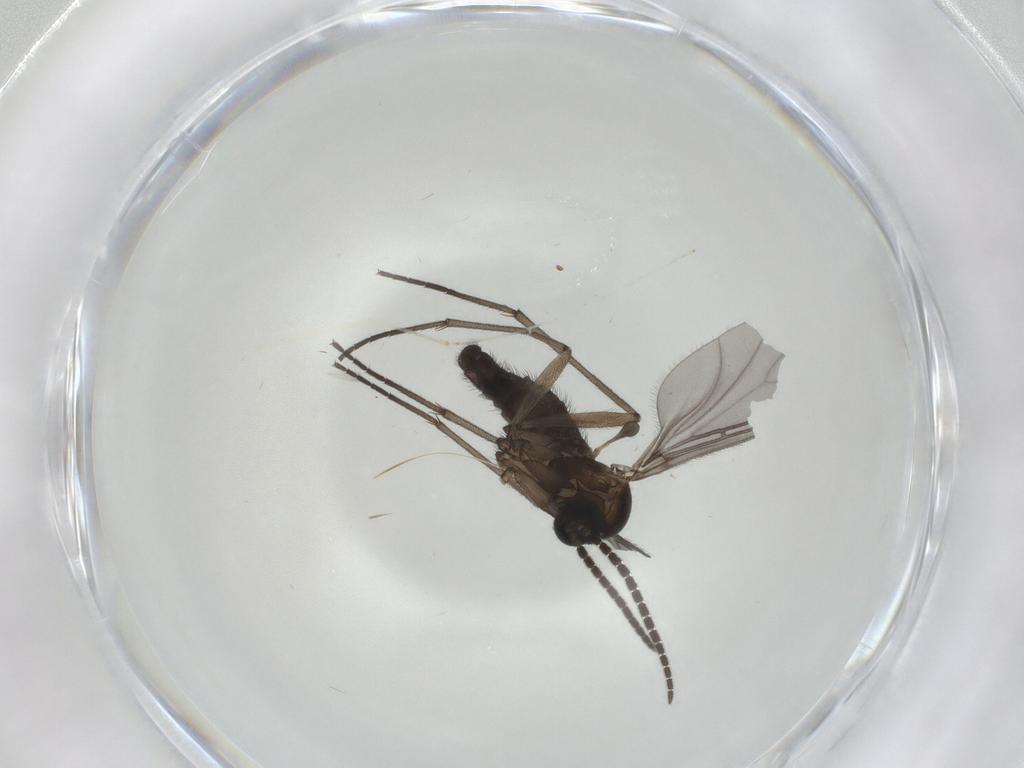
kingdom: Animalia
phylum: Arthropoda
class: Insecta
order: Diptera
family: Sciaridae
